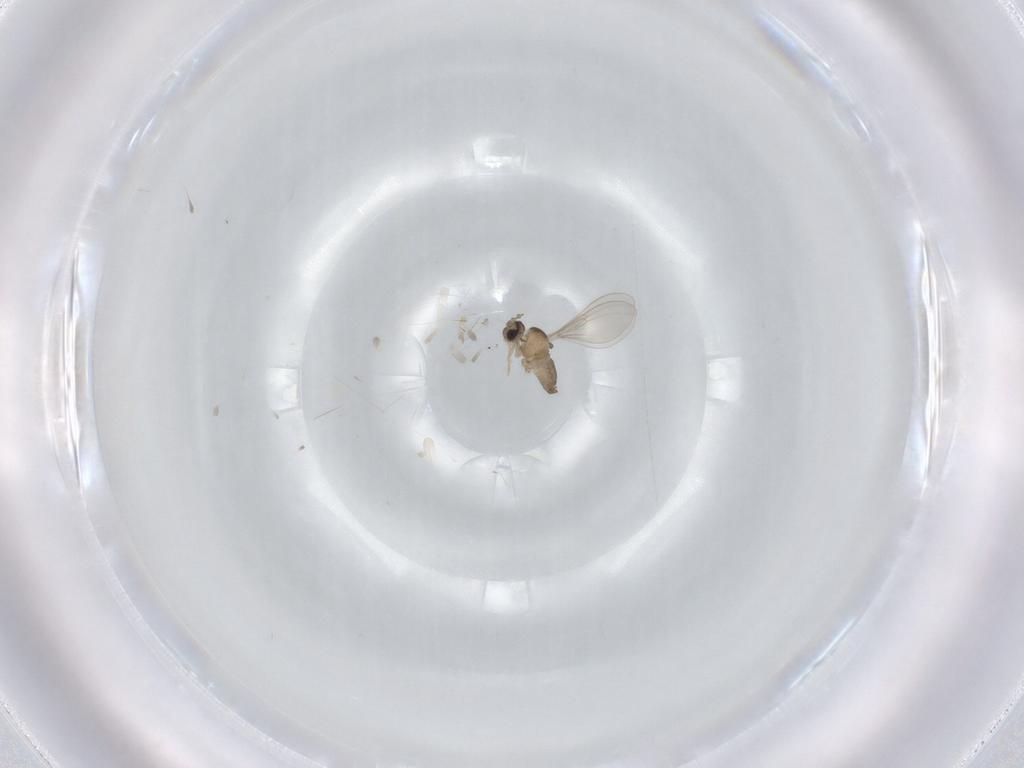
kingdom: Animalia
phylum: Arthropoda
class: Insecta
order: Diptera
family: Cecidomyiidae
